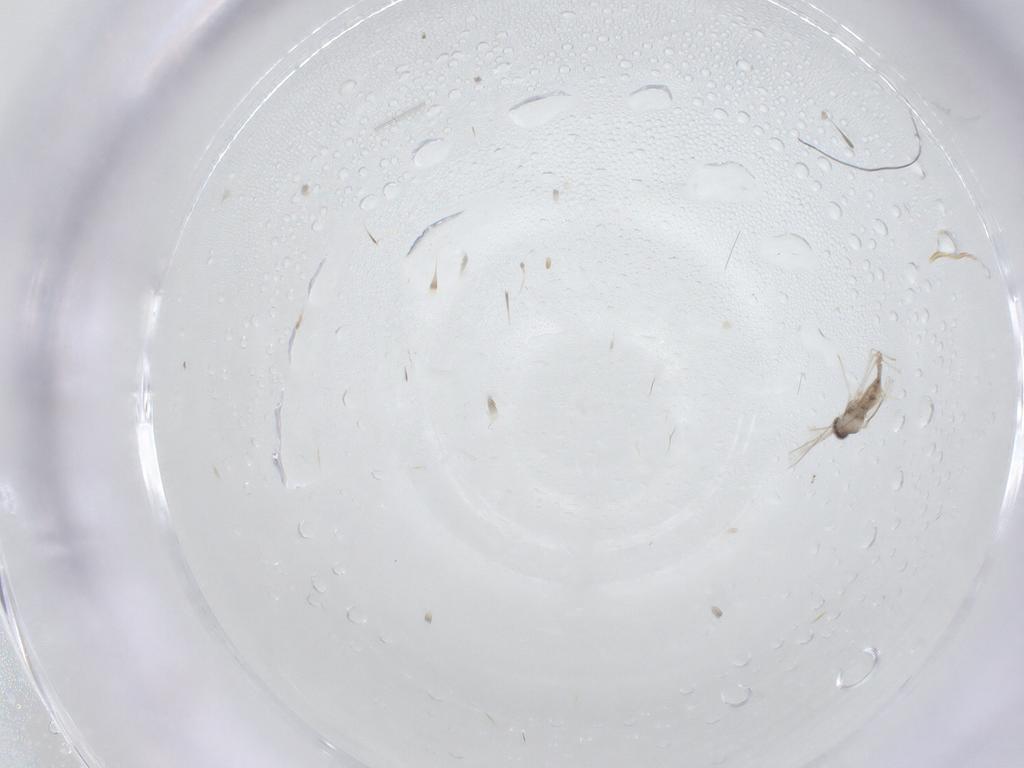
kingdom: Animalia
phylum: Arthropoda
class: Insecta
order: Diptera
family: Cecidomyiidae
